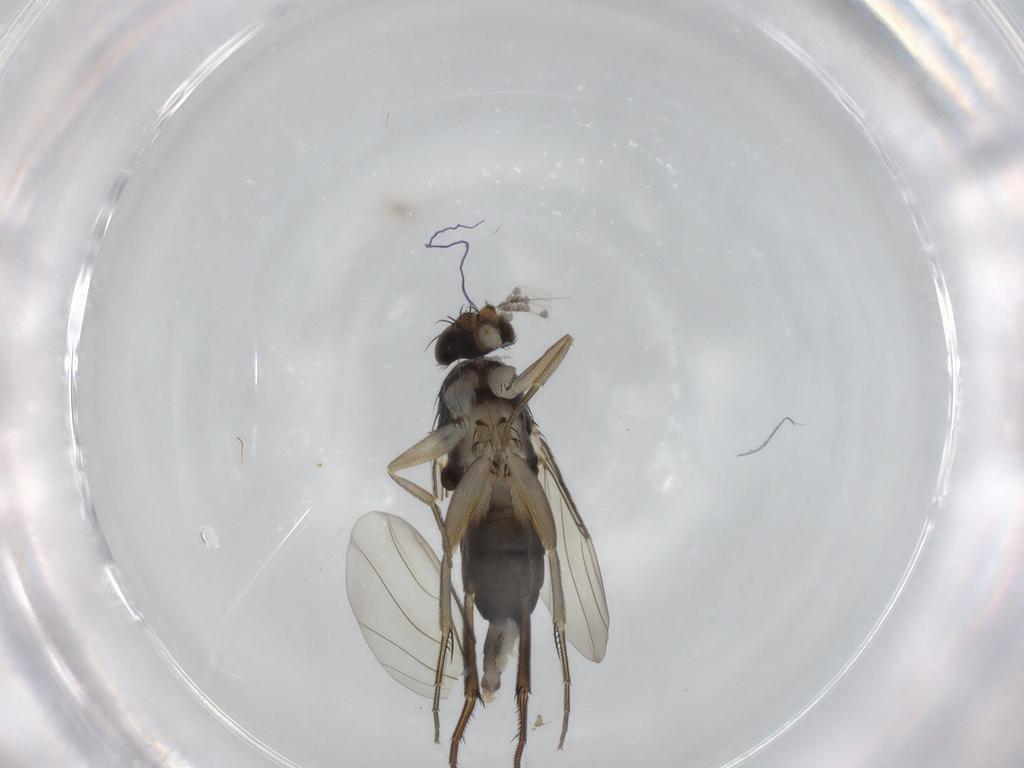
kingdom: Animalia
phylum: Arthropoda
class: Insecta
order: Diptera
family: Phoridae
